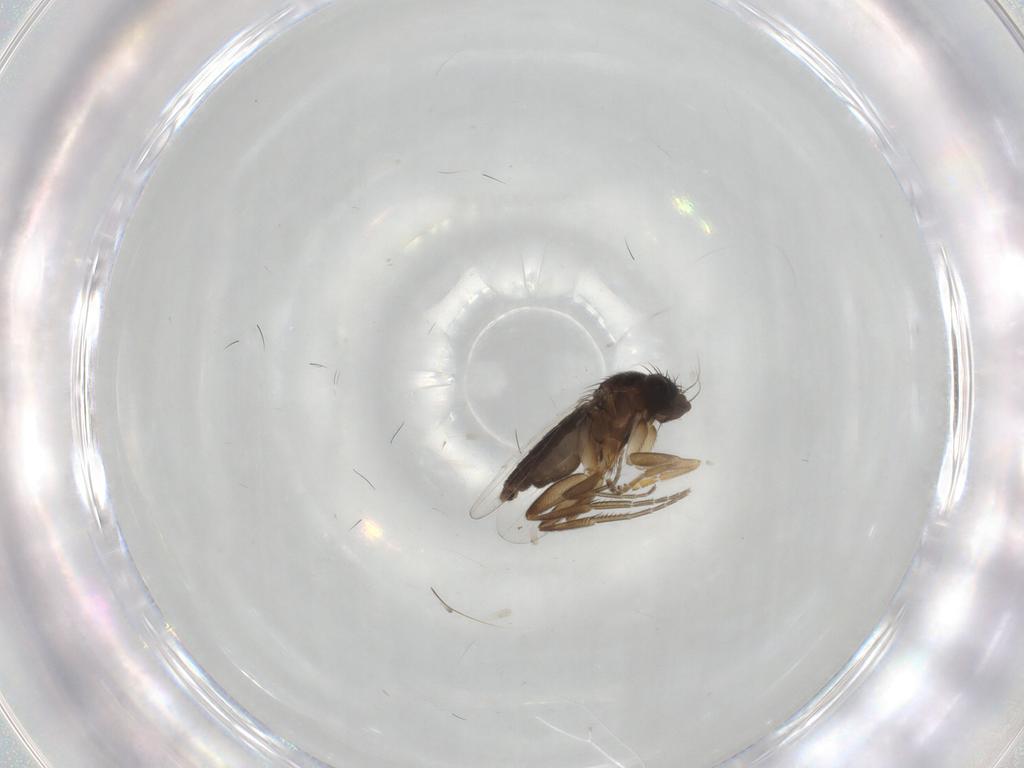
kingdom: Animalia
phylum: Arthropoda
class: Insecta
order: Diptera
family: Phoridae
